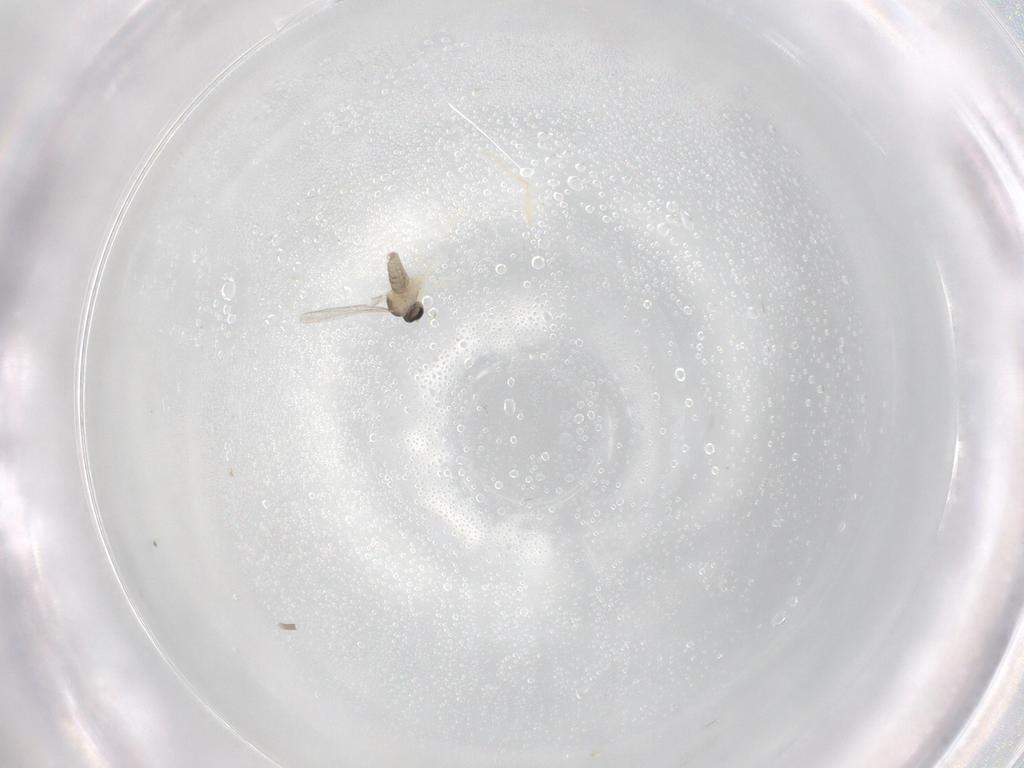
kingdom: Animalia
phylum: Arthropoda
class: Insecta
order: Diptera
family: Cecidomyiidae
